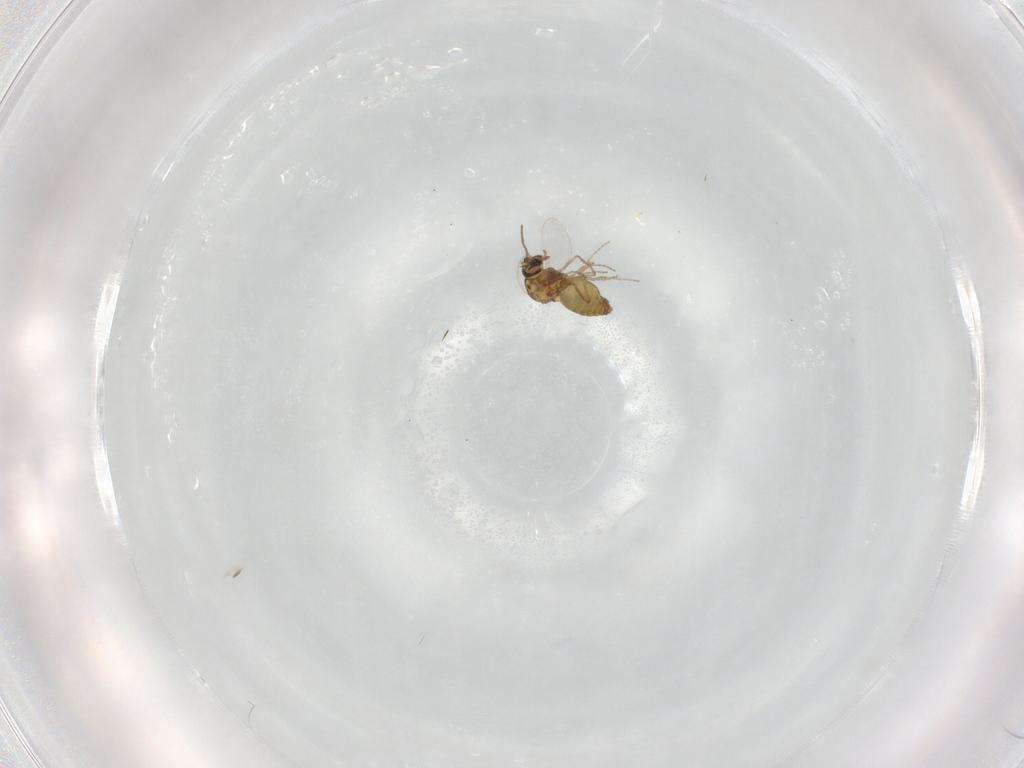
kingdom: Animalia
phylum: Arthropoda
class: Insecta
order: Diptera
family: Ceratopogonidae
